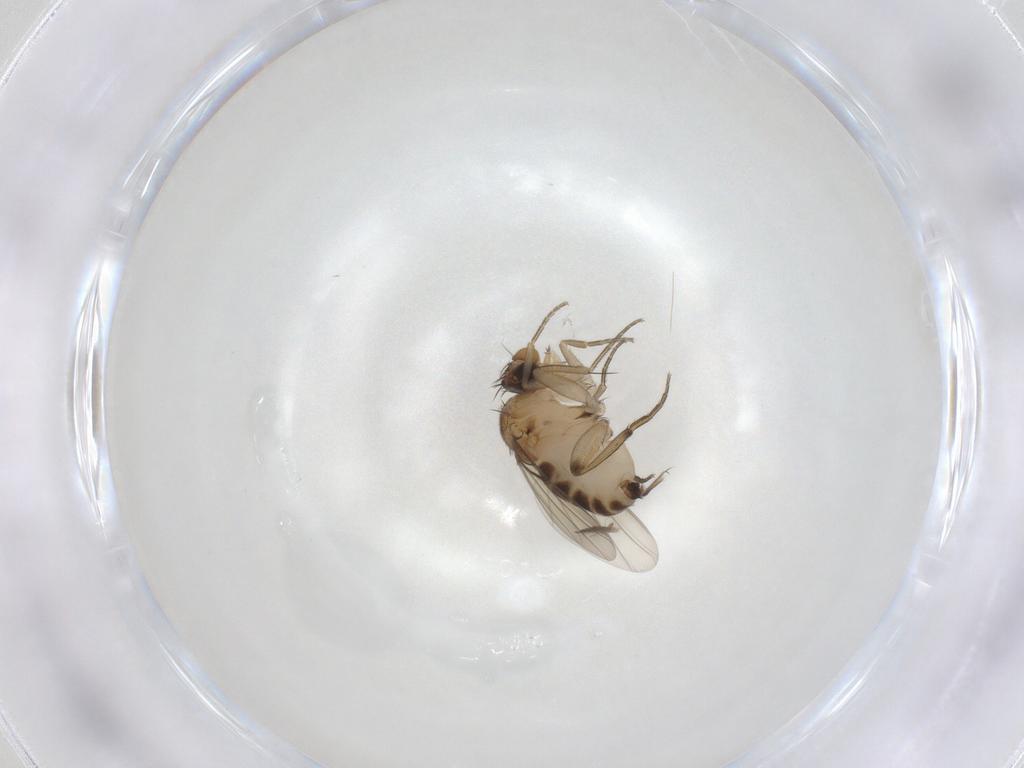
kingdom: Animalia
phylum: Arthropoda
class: Insecta
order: Diptera
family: Phoridae
